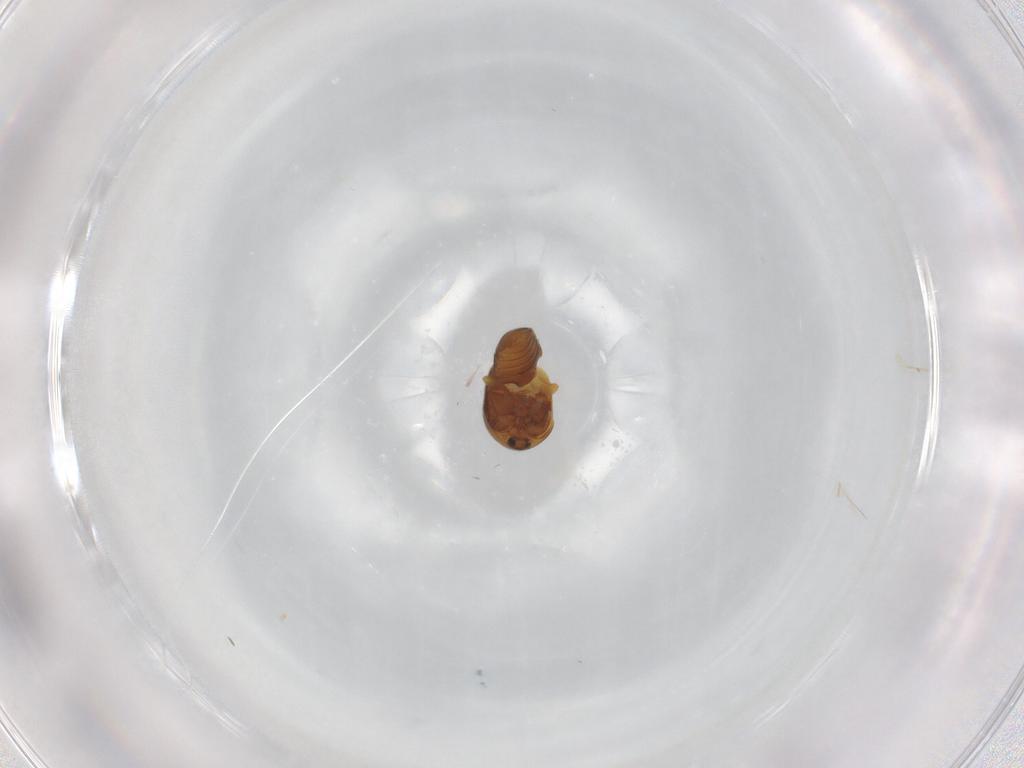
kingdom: Animalia
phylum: Arthropoda
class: Insecta
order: Coleoptera
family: Corylophidae
